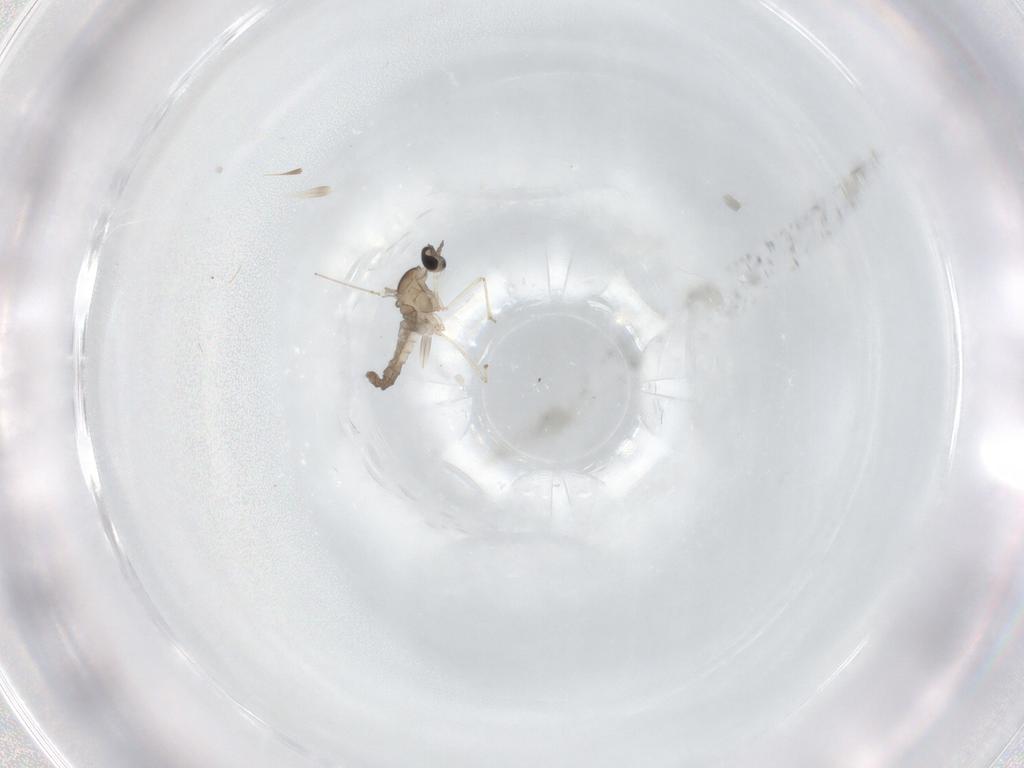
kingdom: Animalia
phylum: Arthropoda
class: Insecta
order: Diptera
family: Cecidomyiidae
